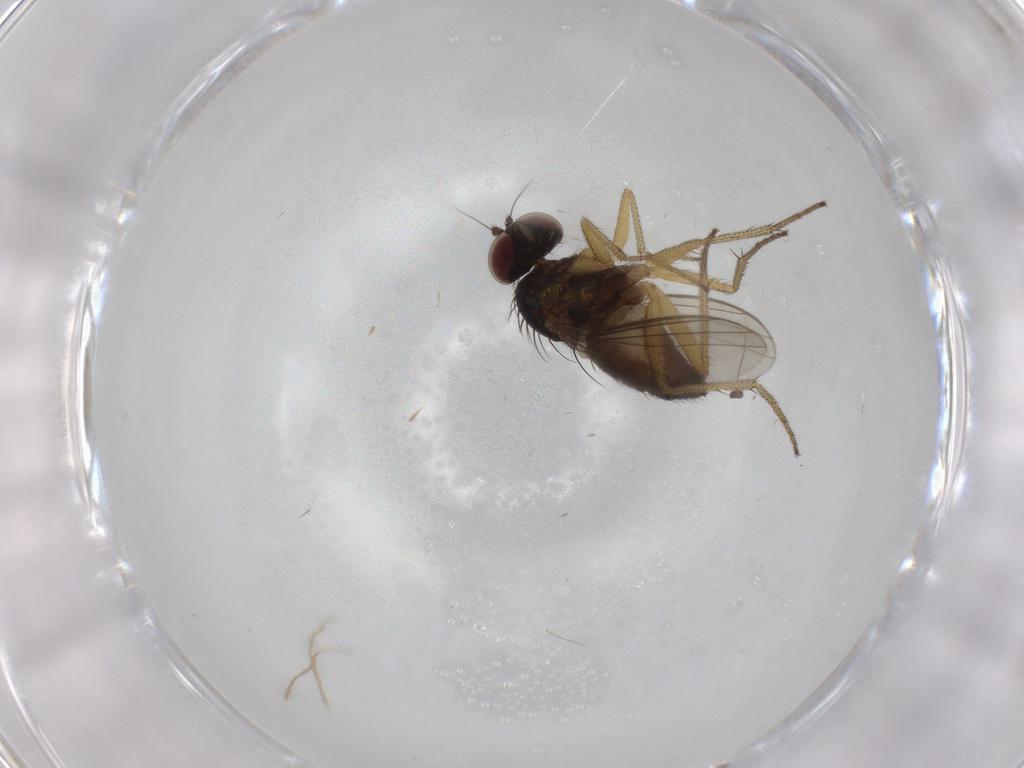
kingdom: Animalia
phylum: Arthropoda
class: Insecta
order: Diptera
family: Dolichopodidae
